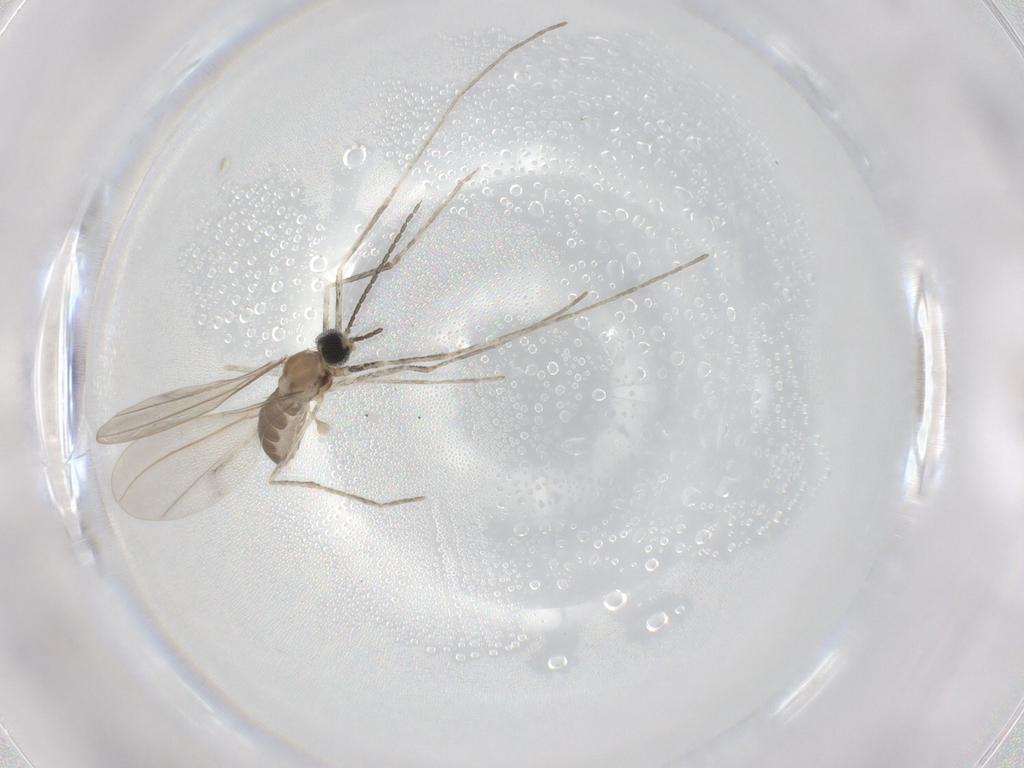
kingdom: Animalia
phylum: Arthropoda
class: Insecta
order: Diptera
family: Cecidomyiidae
